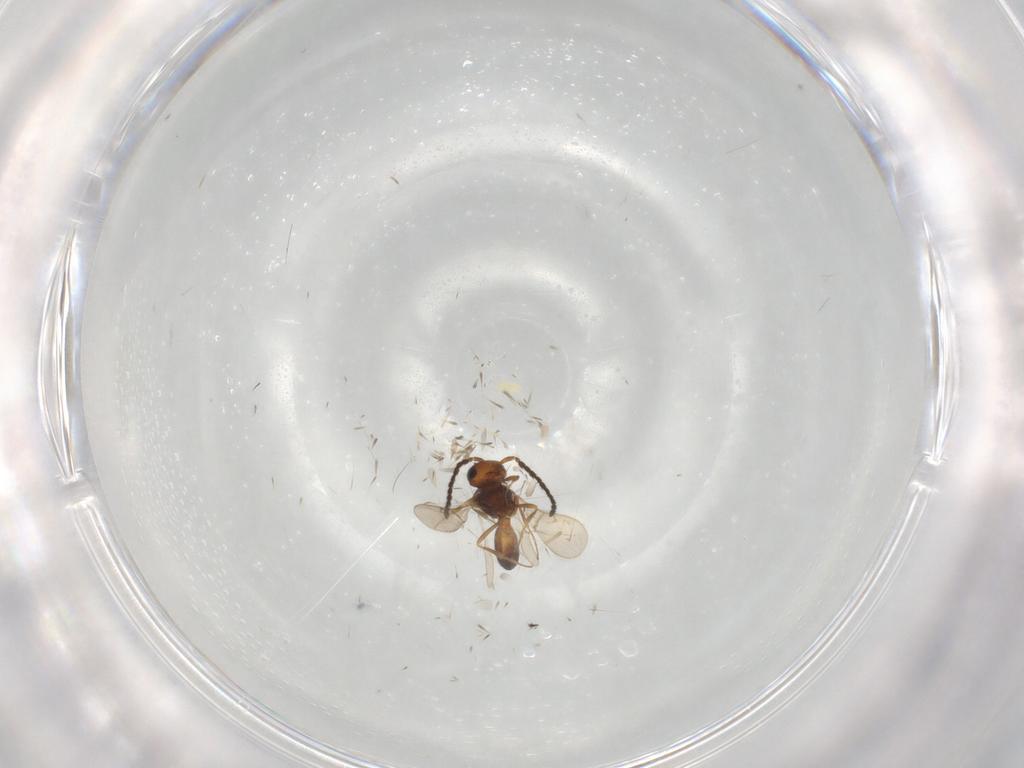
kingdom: Animalia
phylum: Arthropoda
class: Insecta
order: Hymenoptera
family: Scelionidae
